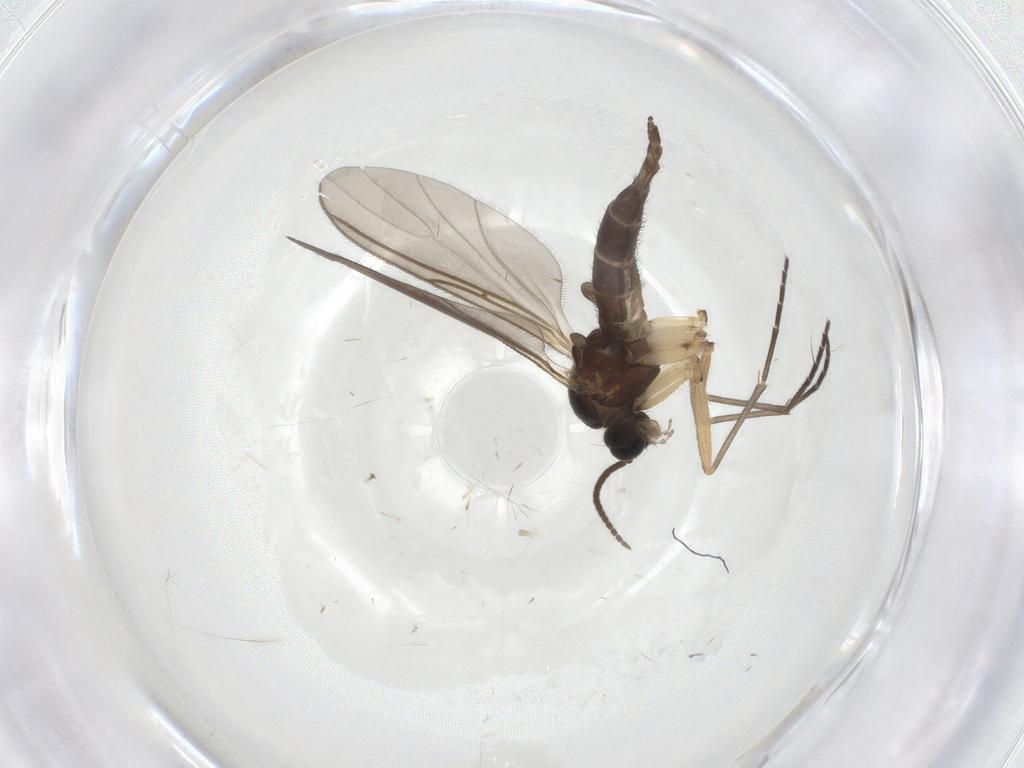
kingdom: Animalia
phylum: Arthropoda
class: Insecta
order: Diptera
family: Sciaridae
